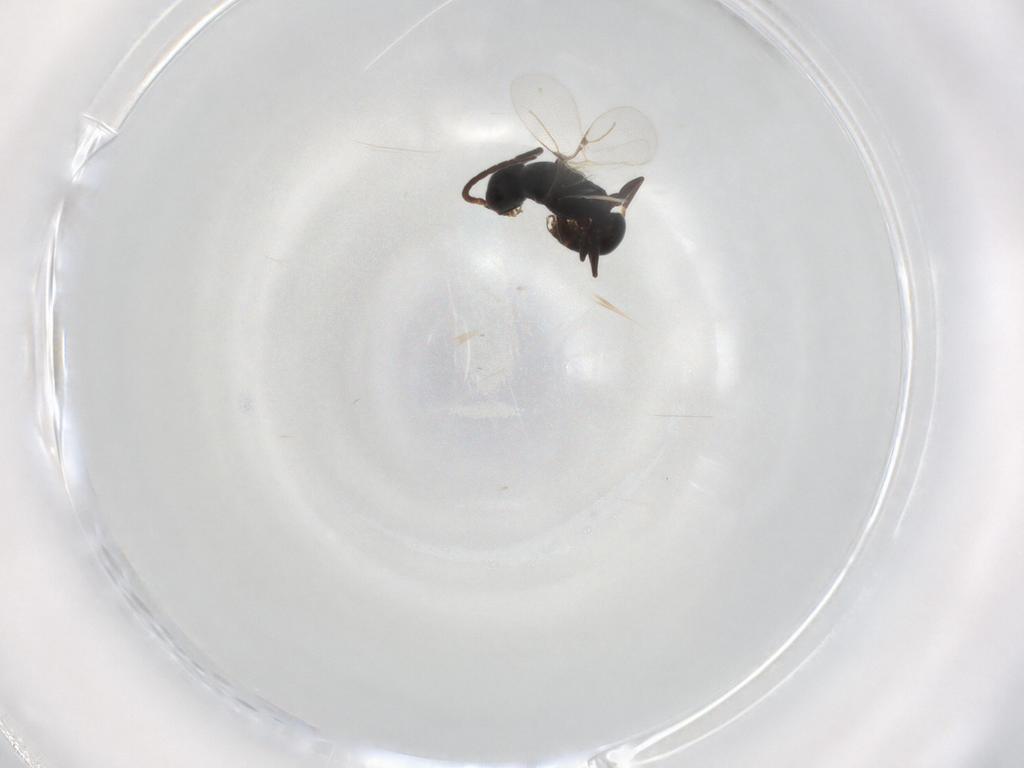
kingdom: Animalia
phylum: Arthropoda
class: Insecta
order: Hymenoptera
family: Bethylidae
